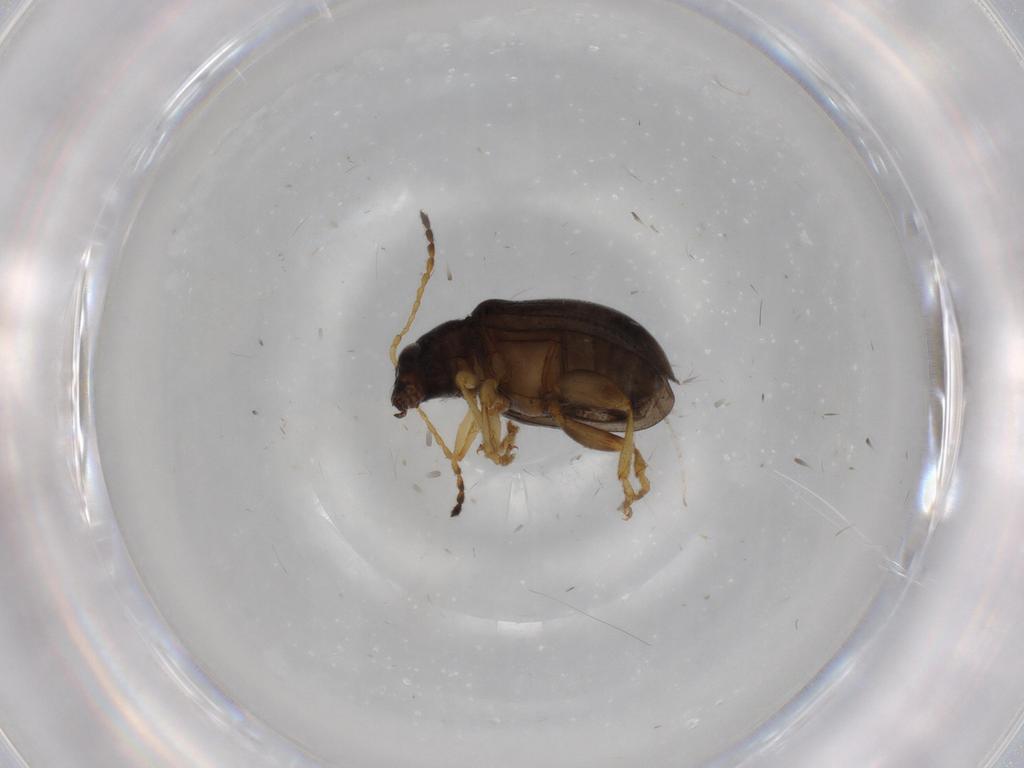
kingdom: Animalia
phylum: Arthropoda
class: Insecta
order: Coleoptera
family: Chrysomelidae
